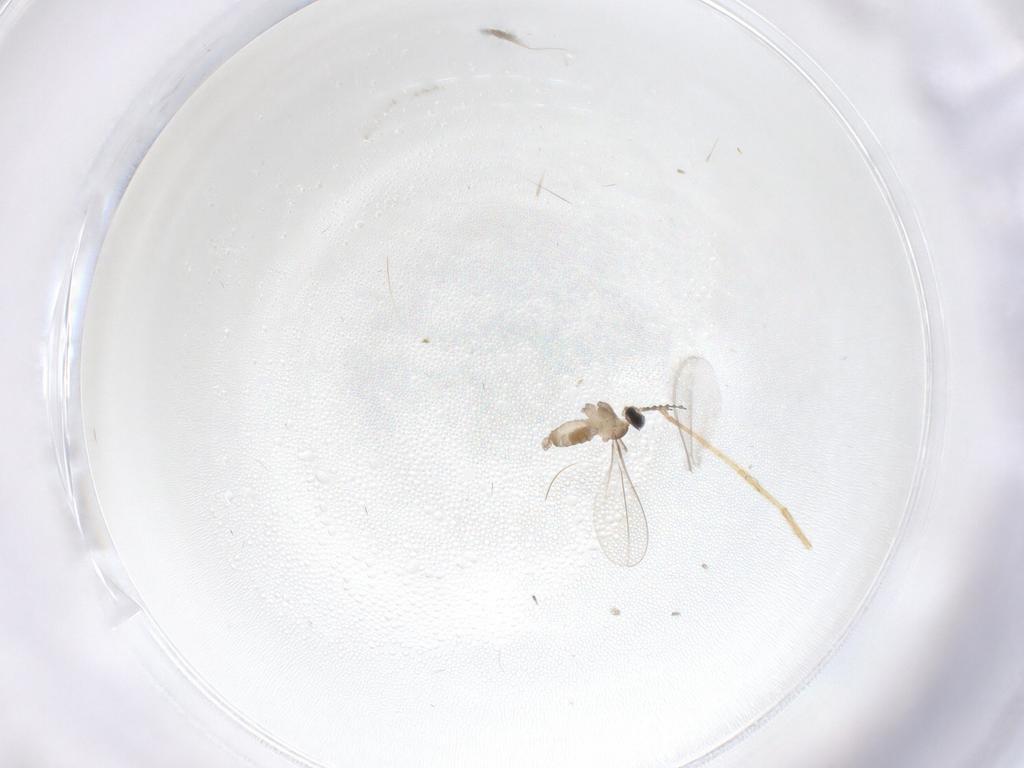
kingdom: Animalia
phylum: Arthropoda
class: Insecta
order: Diptera
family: Cecidomyiidae
